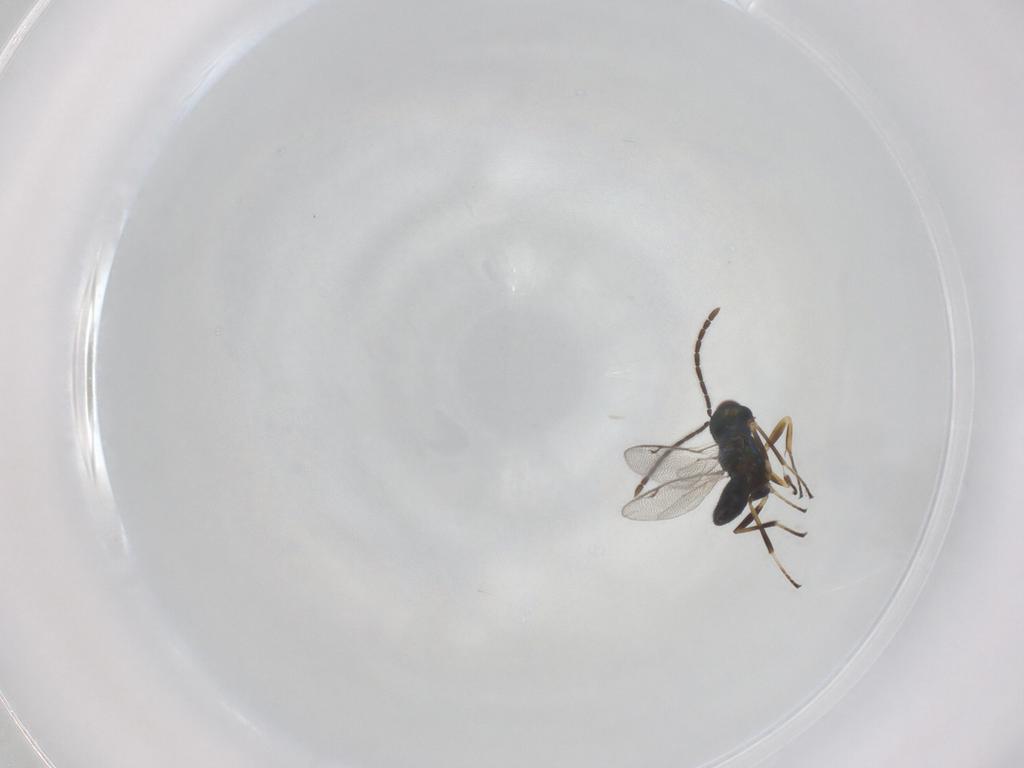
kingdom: Animalia
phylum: Arthropoda
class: Insecta
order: Hymenoptera
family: Eupelmidae
